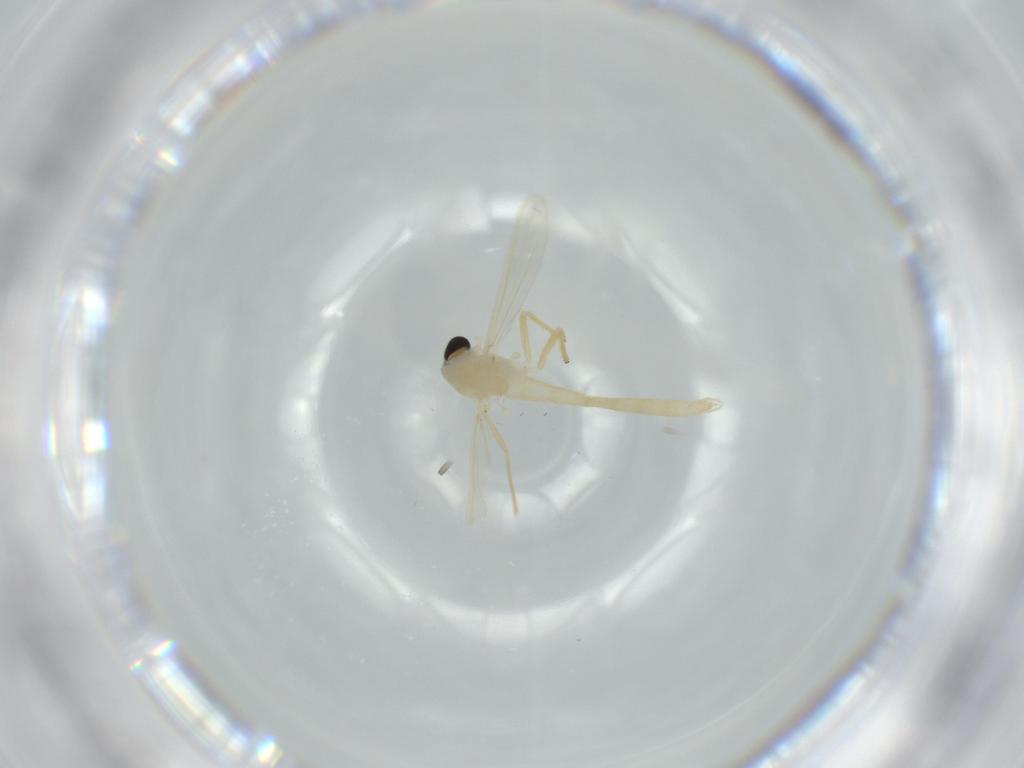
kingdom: Animalia
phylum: Arthropoda
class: Insecta
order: Diptera
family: Chironomidae
